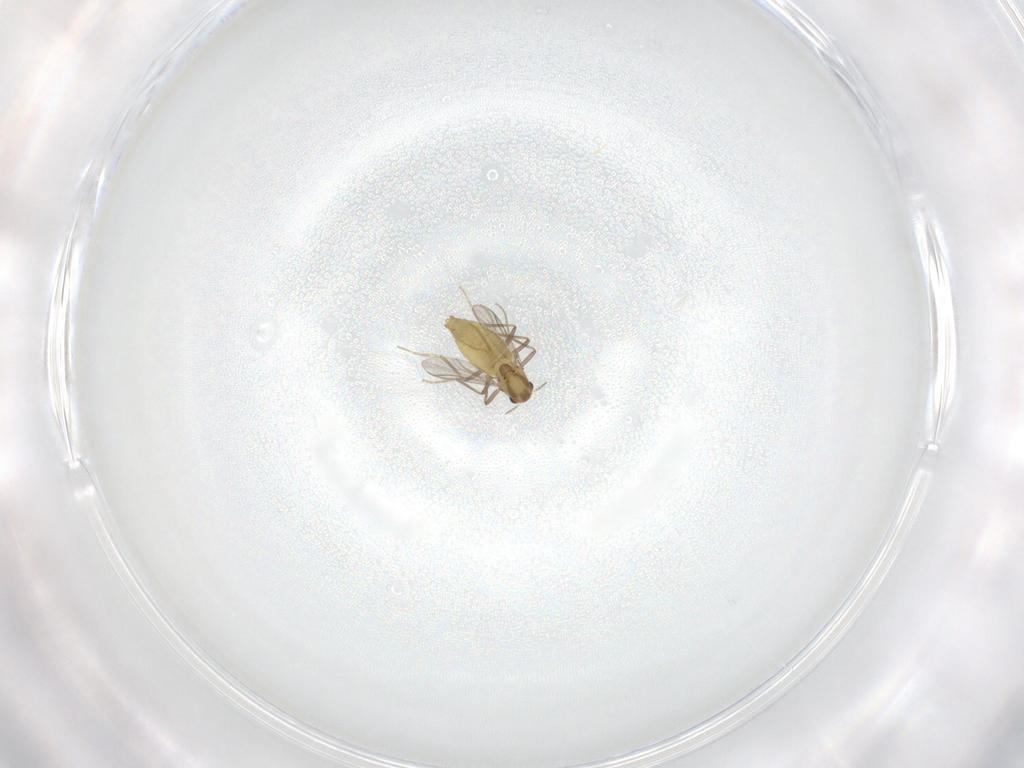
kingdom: Animalia
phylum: Arthropoda
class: Insecta
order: Diptera
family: Chironomidae
